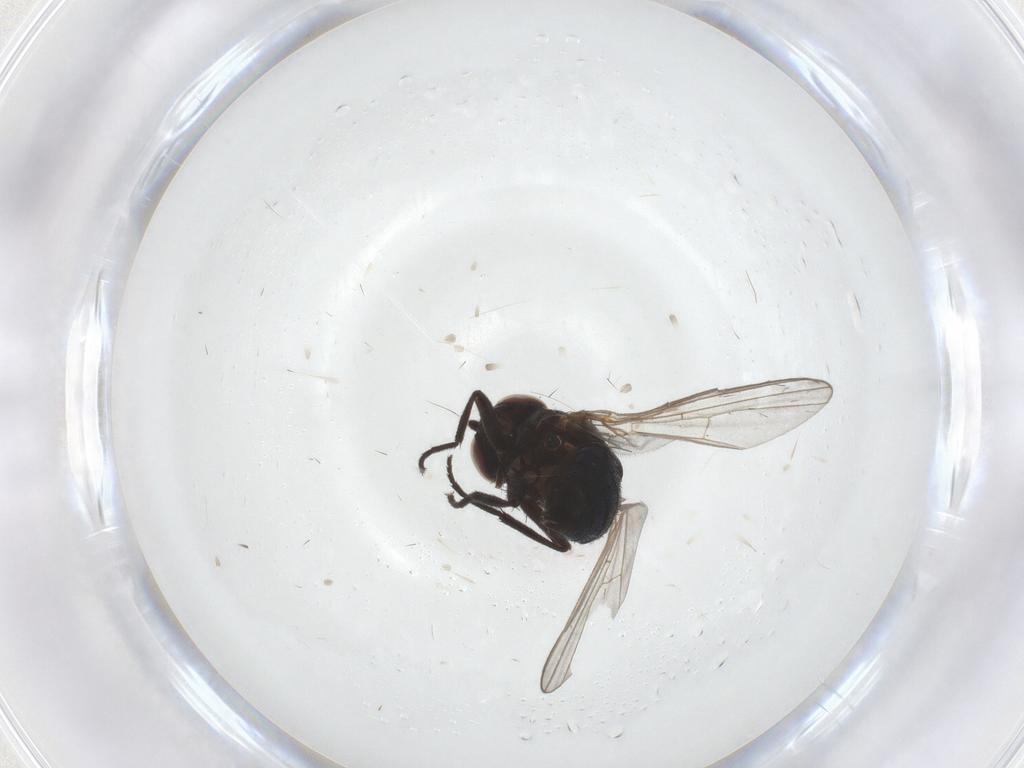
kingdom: Animalia
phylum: Arthropoda
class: Insecta
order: Diptera
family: Agromyzidae
